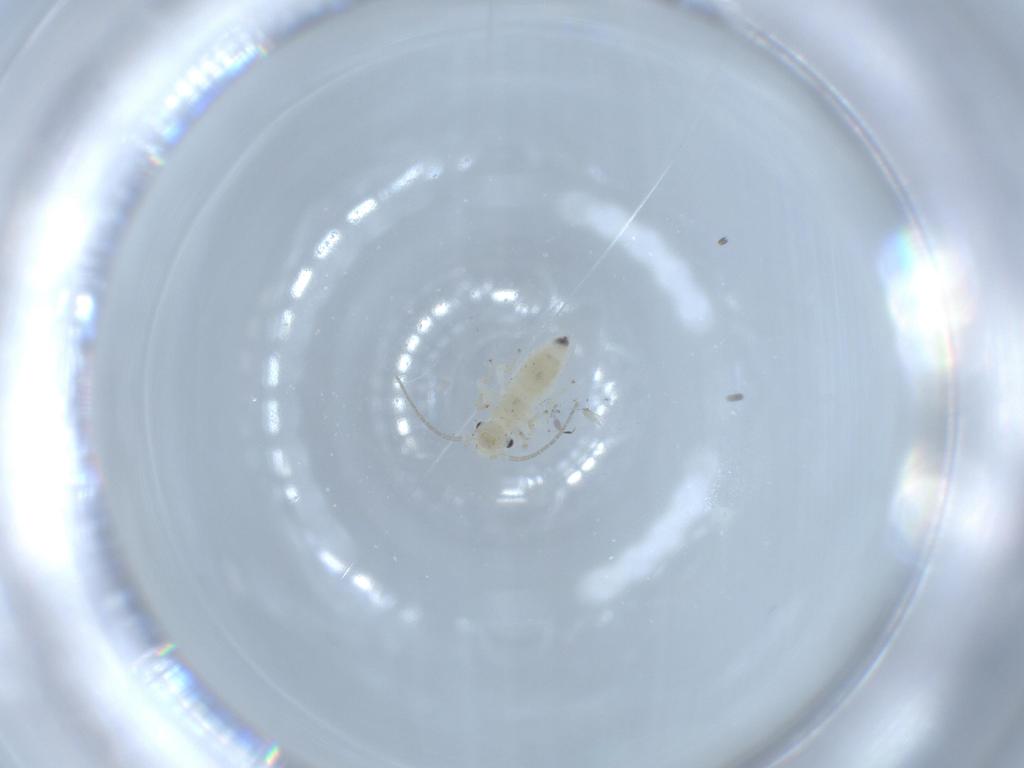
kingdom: Animalia
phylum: Arthropoda
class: Insecta
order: Psocodea
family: Caeciliusidae
